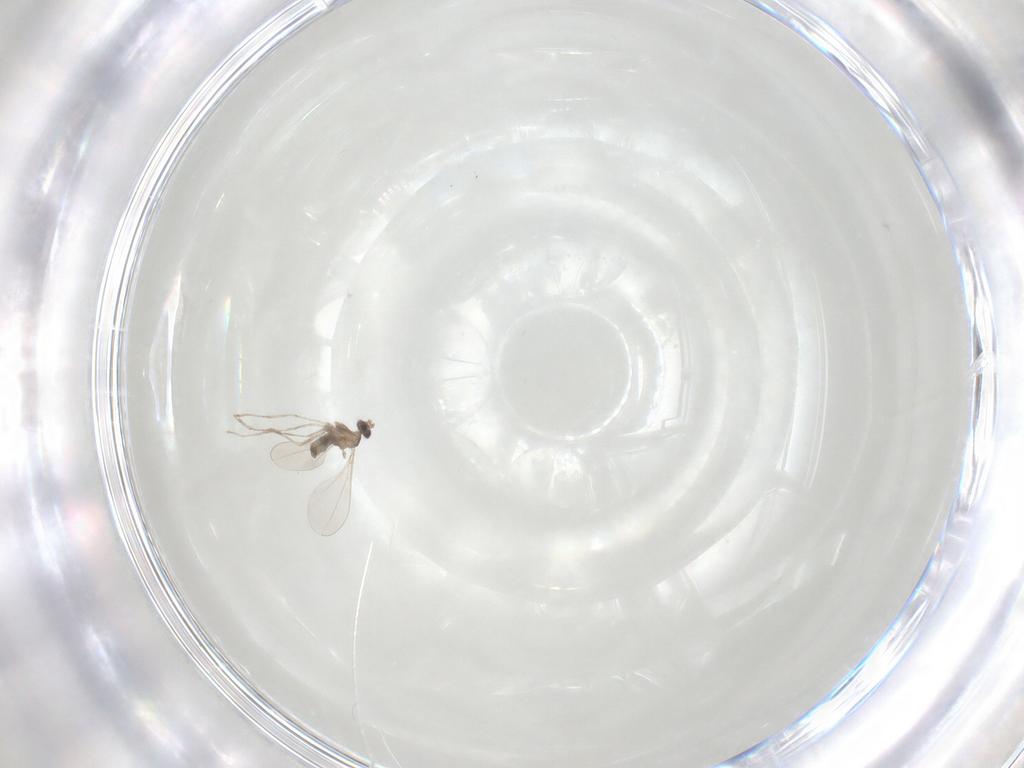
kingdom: Animalia
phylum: Arthropoda
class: Insecta
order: Diptera
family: Cecidomyiidae
